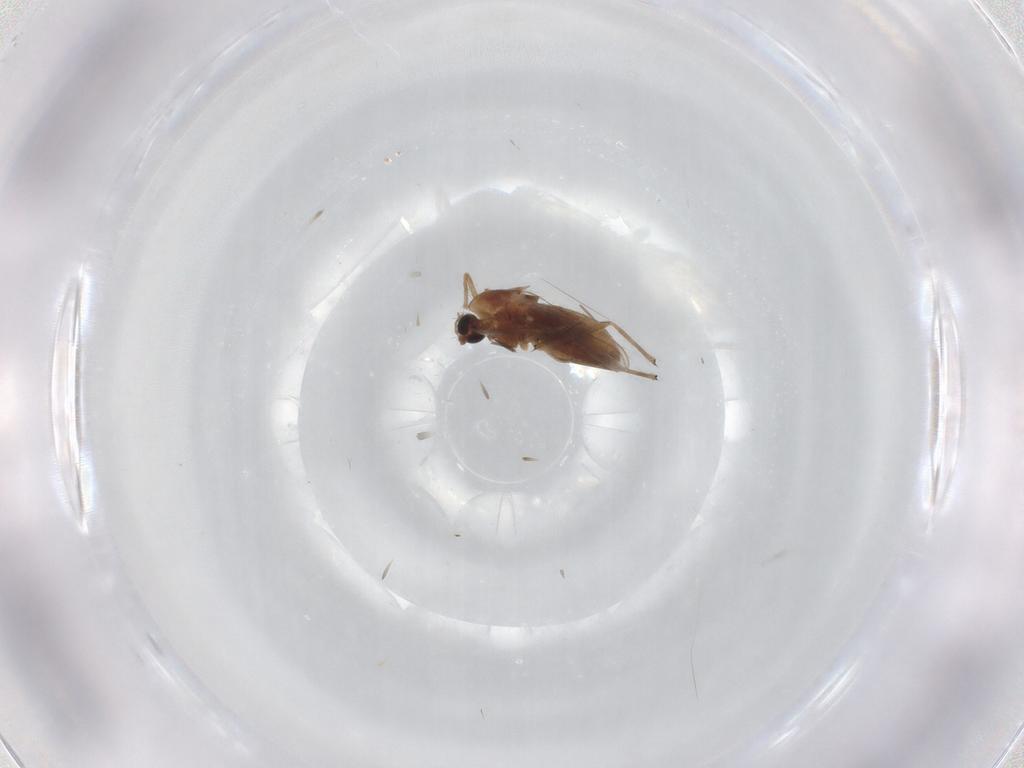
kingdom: Animalia
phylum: Arthropoda
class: Insecta
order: Diptera
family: Chironomidae
